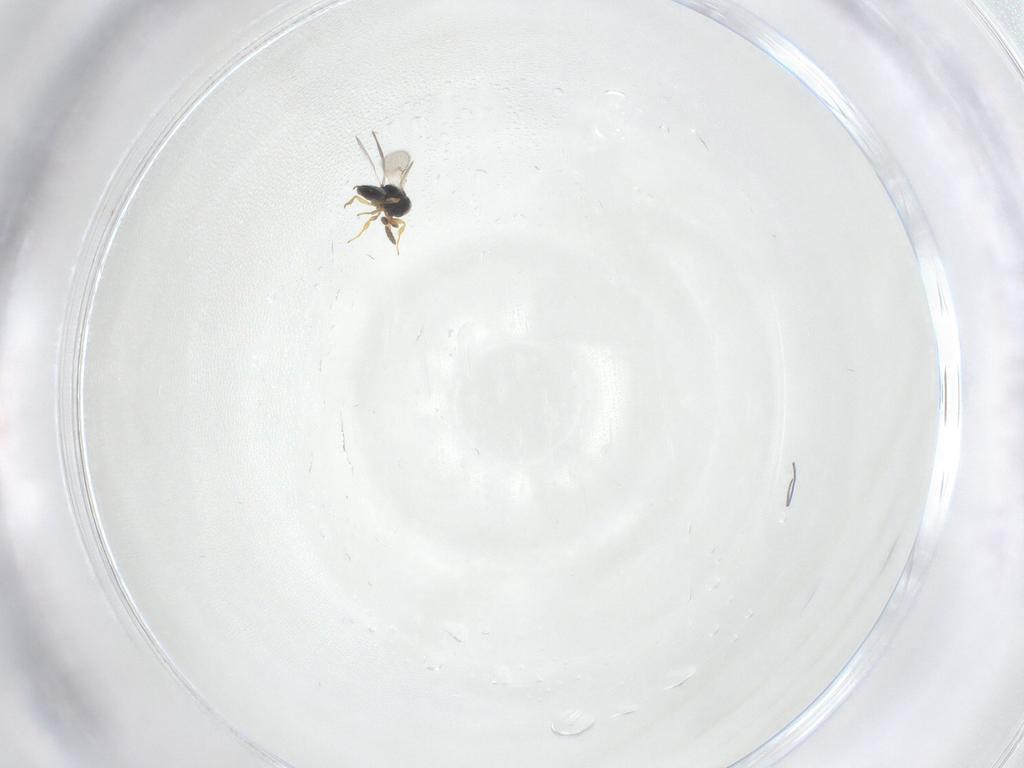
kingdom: Animalia
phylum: Arthropoda
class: Insecta
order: Hymenoptera
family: Scelionidae
